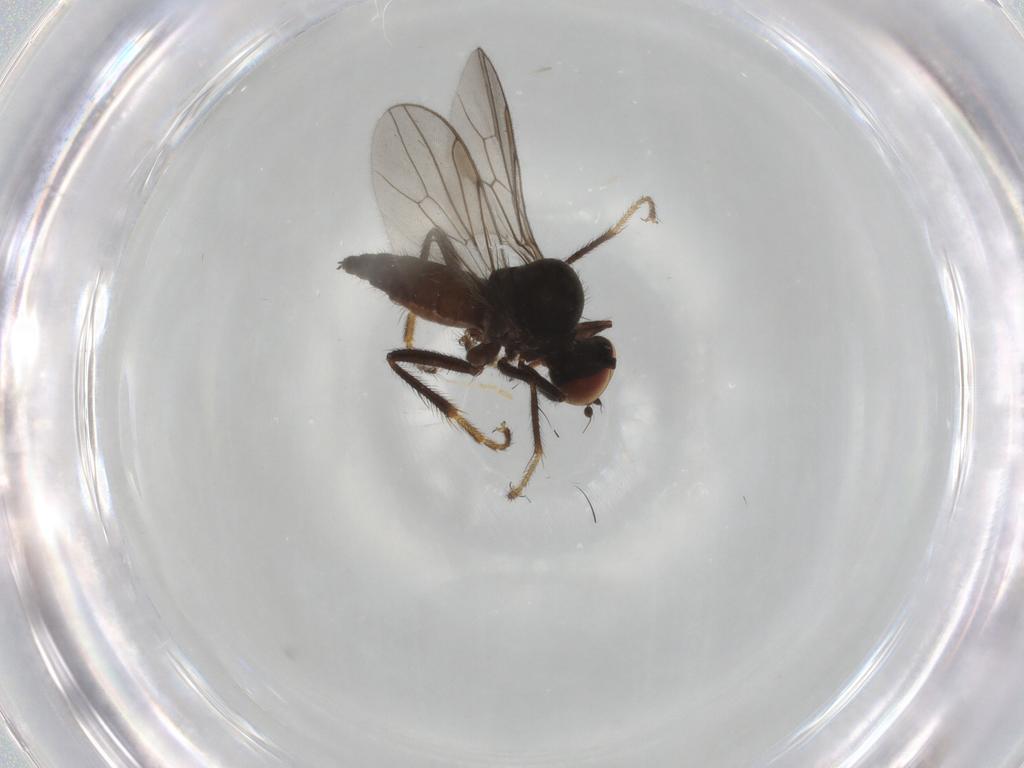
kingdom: Animalia
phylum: Arthropoda
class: Insecta
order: Diptera
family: Hybotidae
